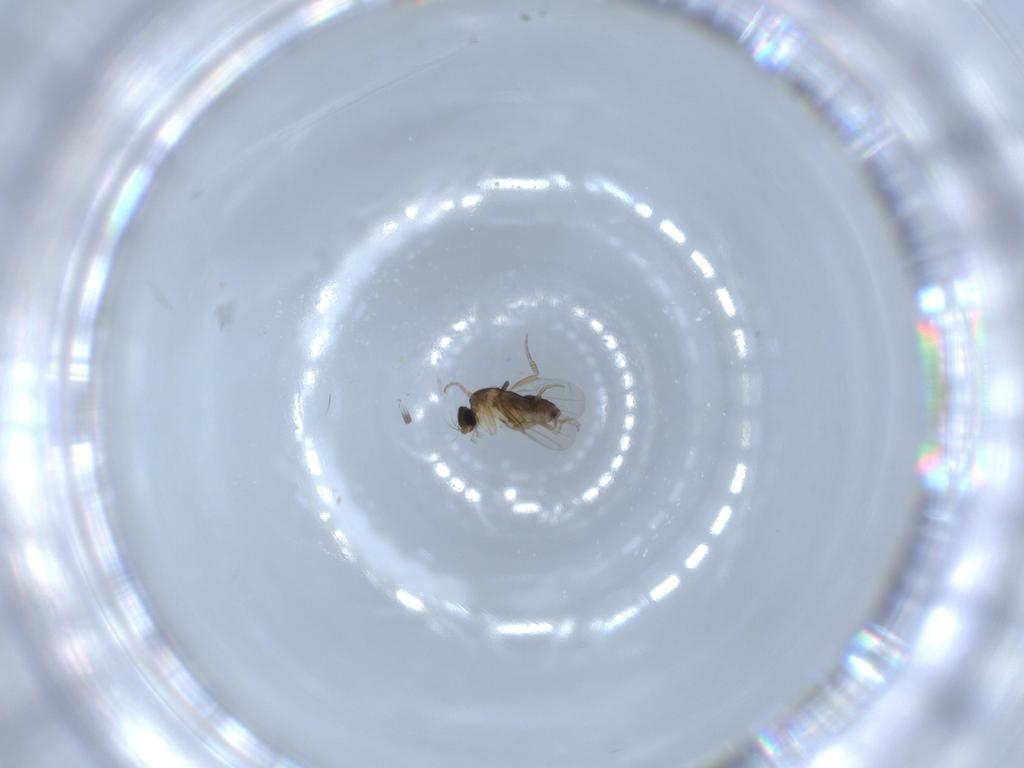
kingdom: Animalia
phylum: Arthropoda
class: Insecta
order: Diptera
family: Phoridae
